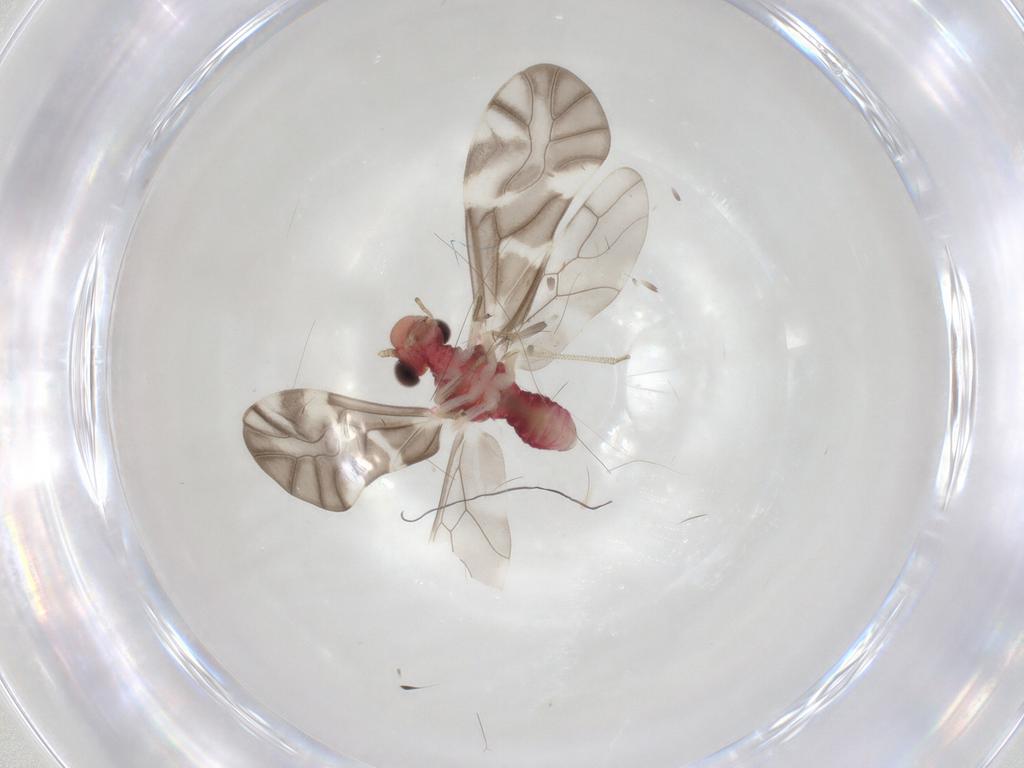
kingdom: Animalia
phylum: Arthropoda
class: Insecta
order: Psocodea
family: Caeciliusidae
